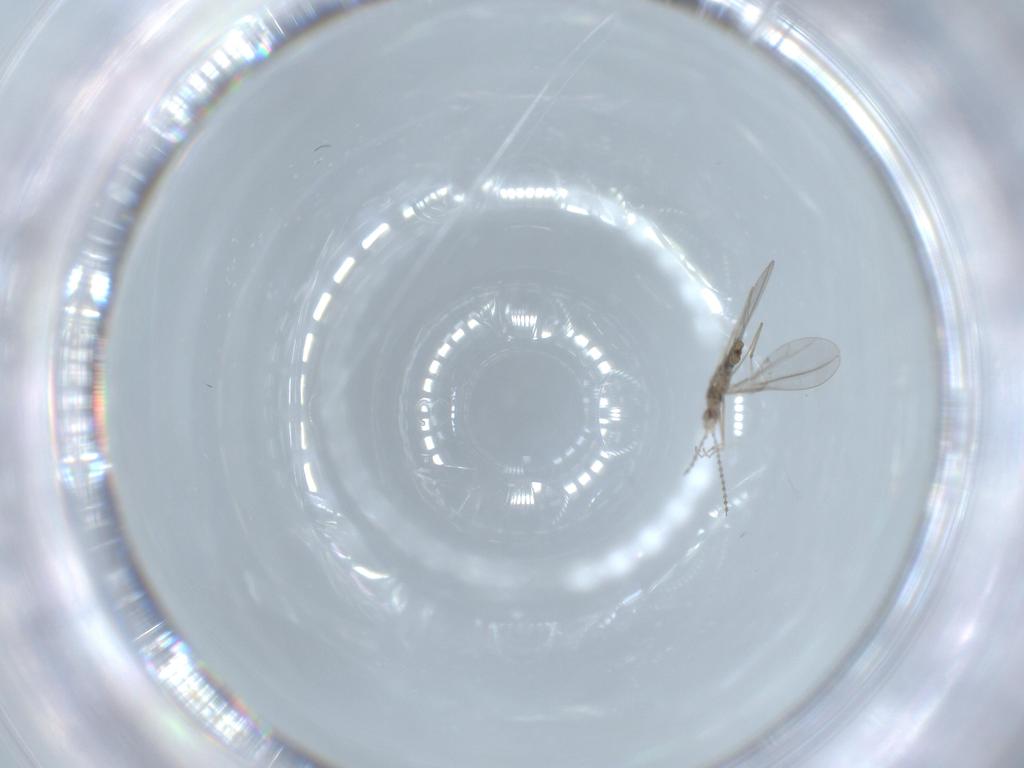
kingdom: Animalia
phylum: Arthropoda
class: Insecta
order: Diptera
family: Cecidomyiidae
